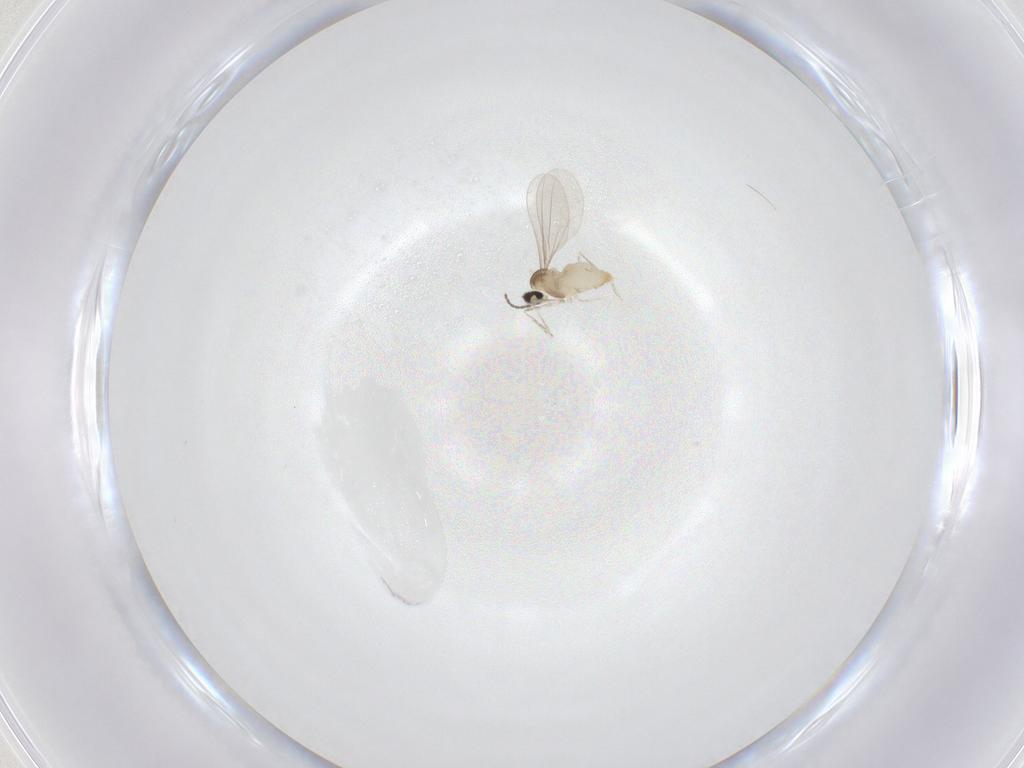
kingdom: Animalia
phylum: Arthropoda
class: Insecta
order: Diptera
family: Cecidomyiidae
